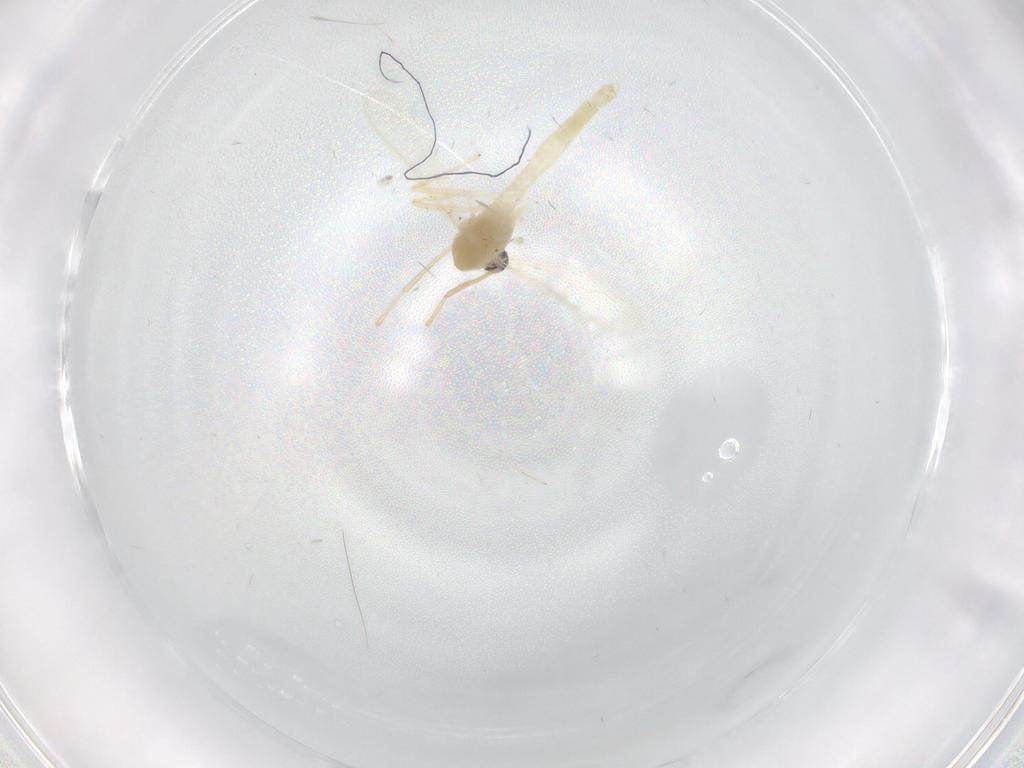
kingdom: Animalia
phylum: Arthropoda
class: Insecta
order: Diptera
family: Chironomidae
